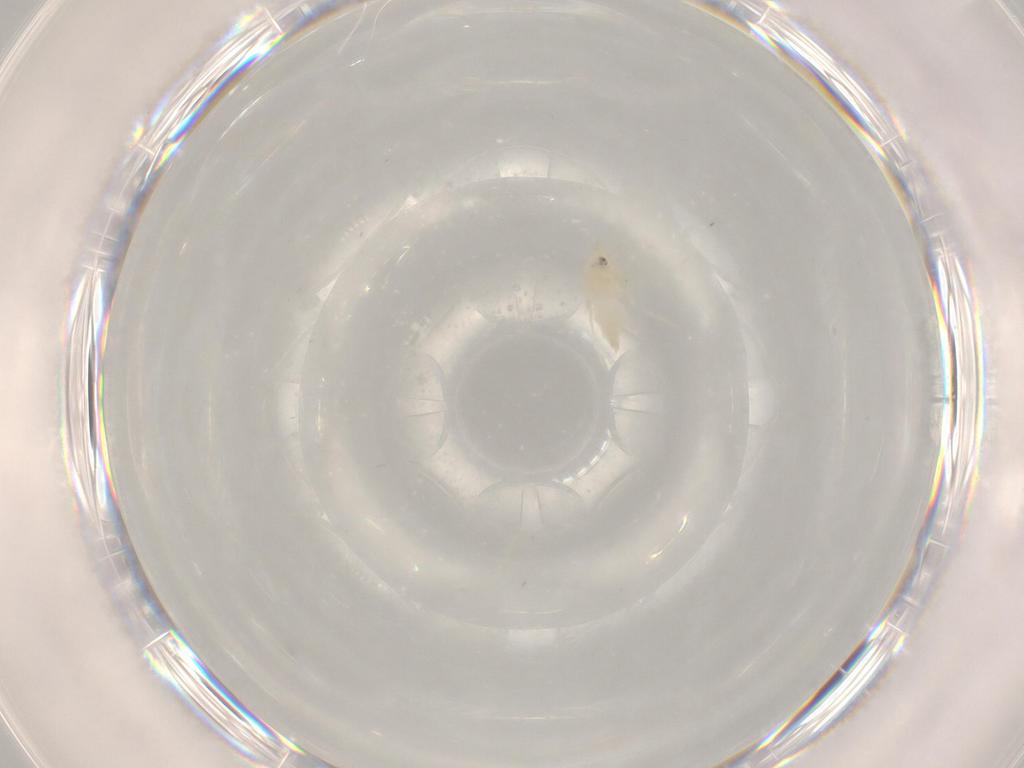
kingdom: Animalia
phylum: Arthropoda
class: Insecta
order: Hemiptera
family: Aleyrodidae
